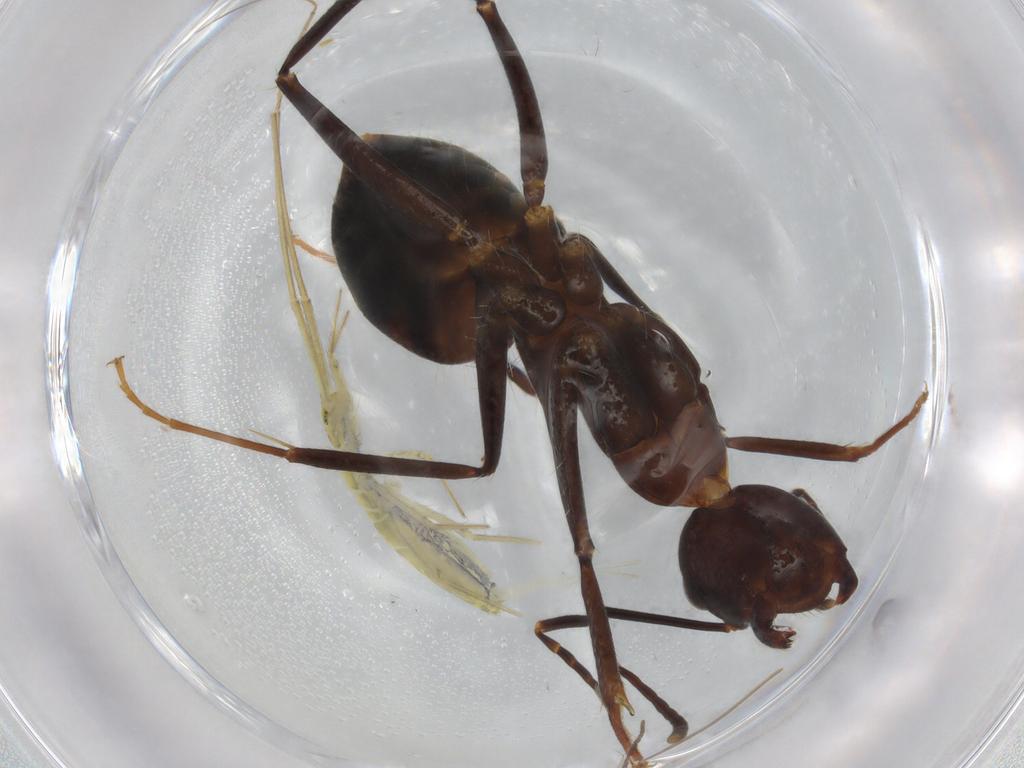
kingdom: Animalia
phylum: Arthropoda
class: Insecta
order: Hymenoptera
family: Formicidae
